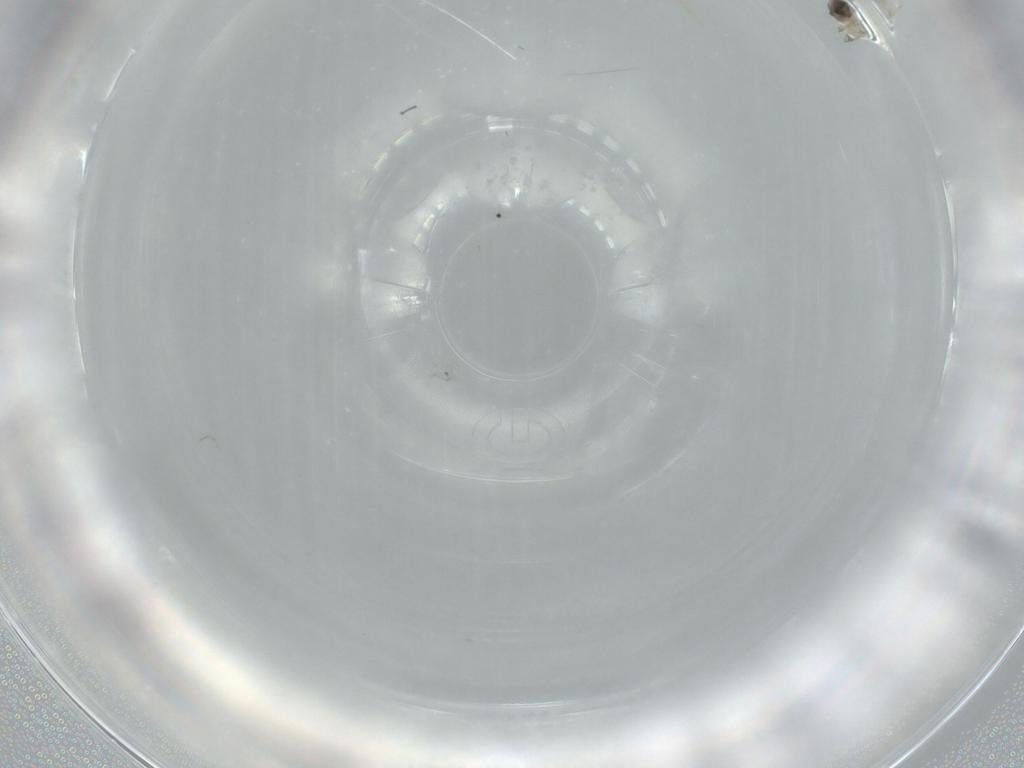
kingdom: Animalia
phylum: Arthropoda
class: Insecta
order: Hymenoptera
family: Aphelinidae
